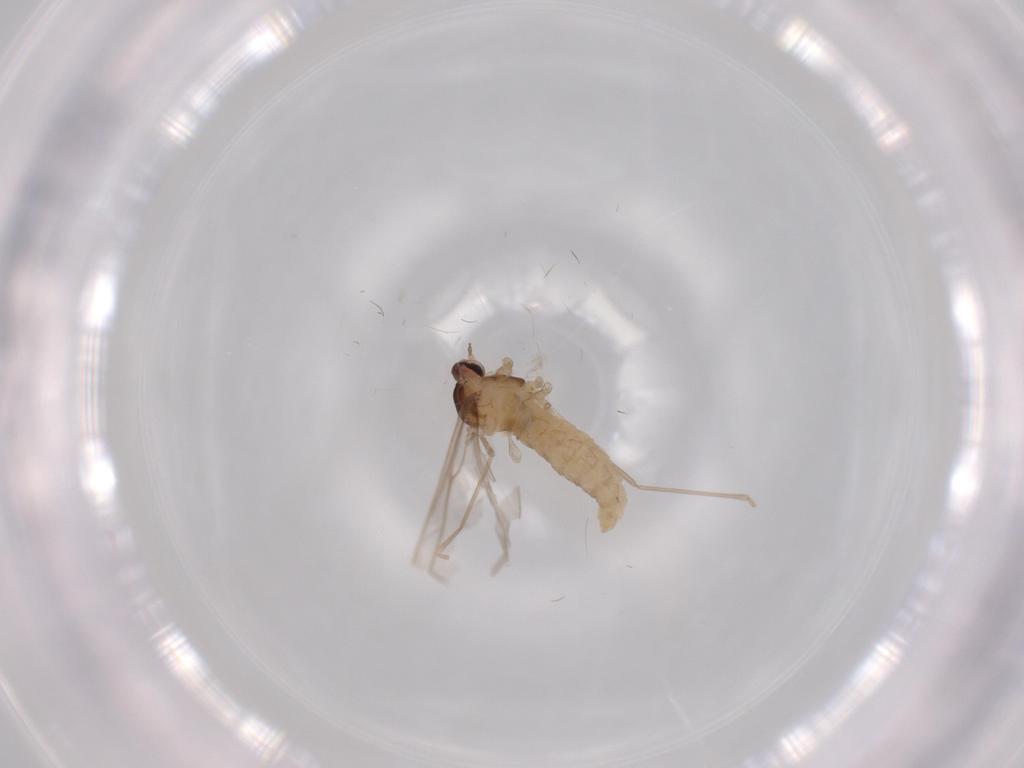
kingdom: Animalia
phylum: Arthropoda
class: Insecta
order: Diptera
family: Cecidomyiidae
